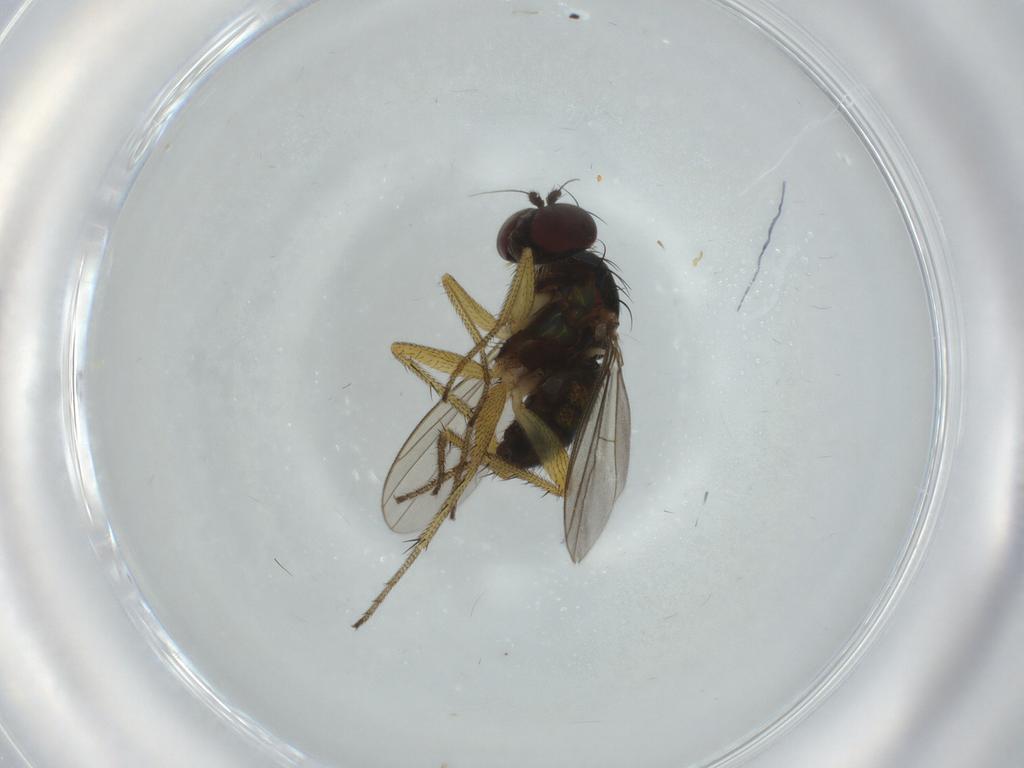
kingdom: Animalia
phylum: Arthropoda
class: Insecta
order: Diptera
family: Dolichopodidae
